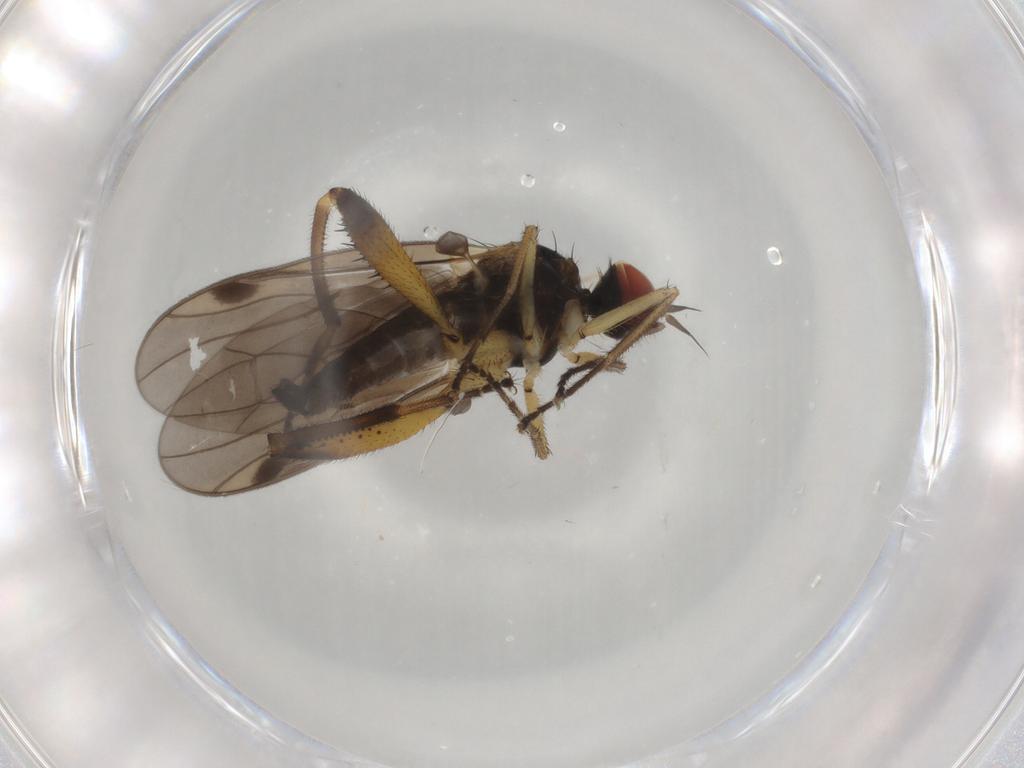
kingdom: Animalia
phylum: Arthropoda
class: Insecta
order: Diptera
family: Hybotidae
